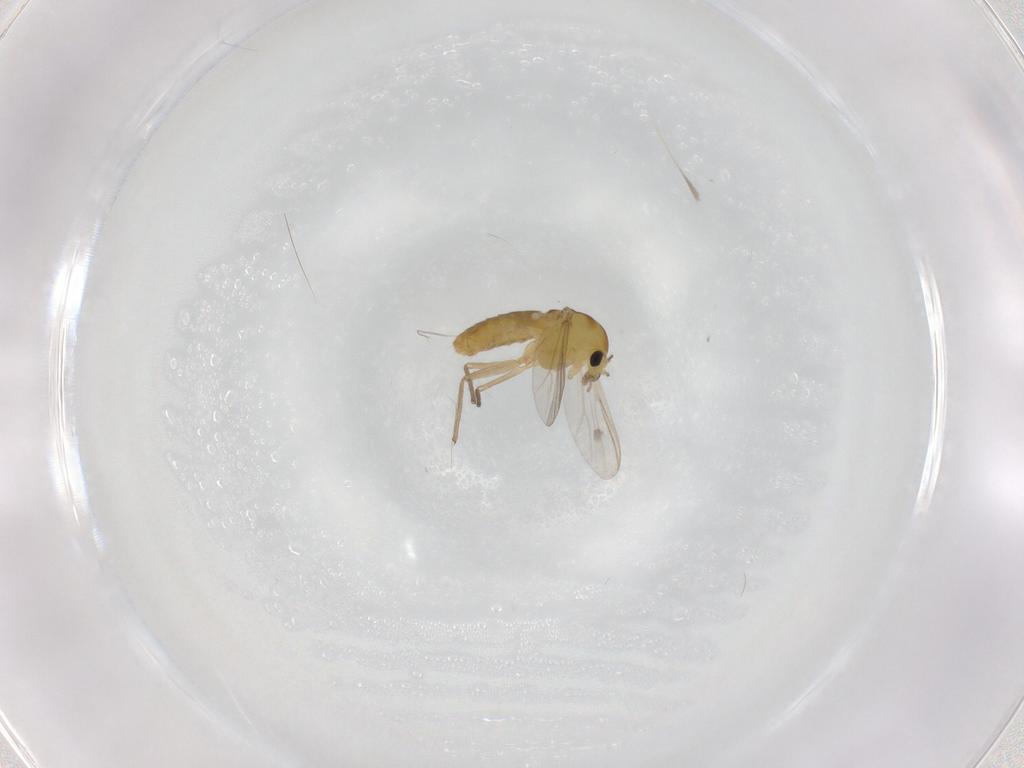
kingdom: Animalia
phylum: Arthropoda
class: Insecta
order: Diptera
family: Chironomidae
